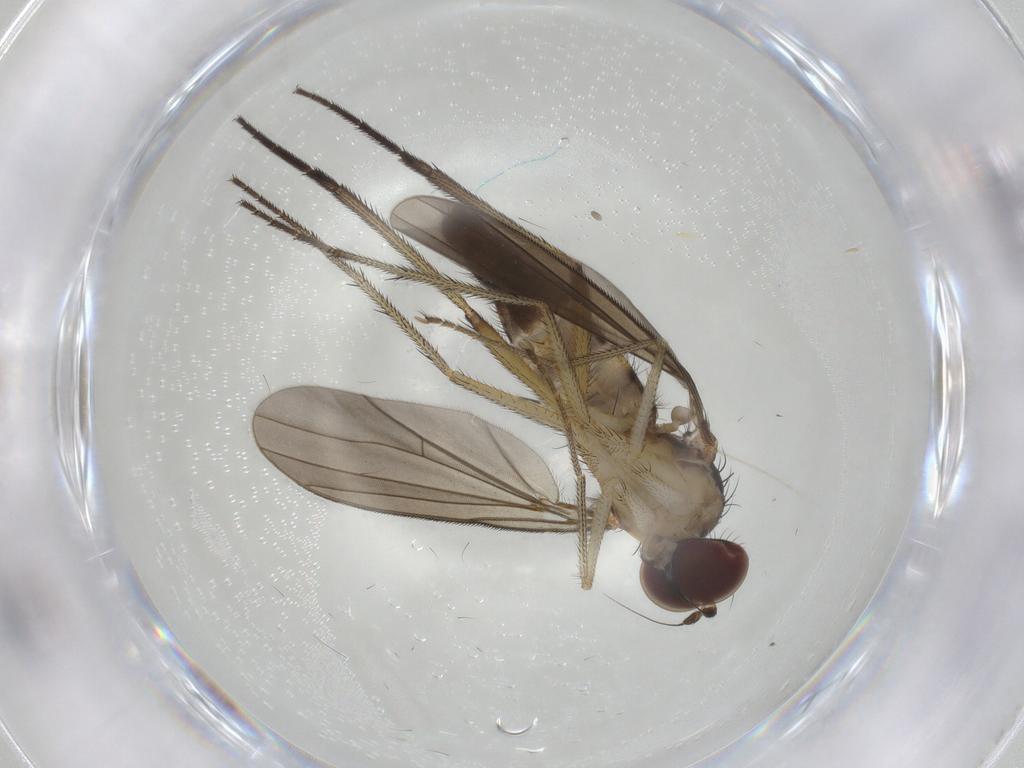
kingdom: Animalia
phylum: Arthropoda
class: Insecta
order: Diptera
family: Dolichopodidae
